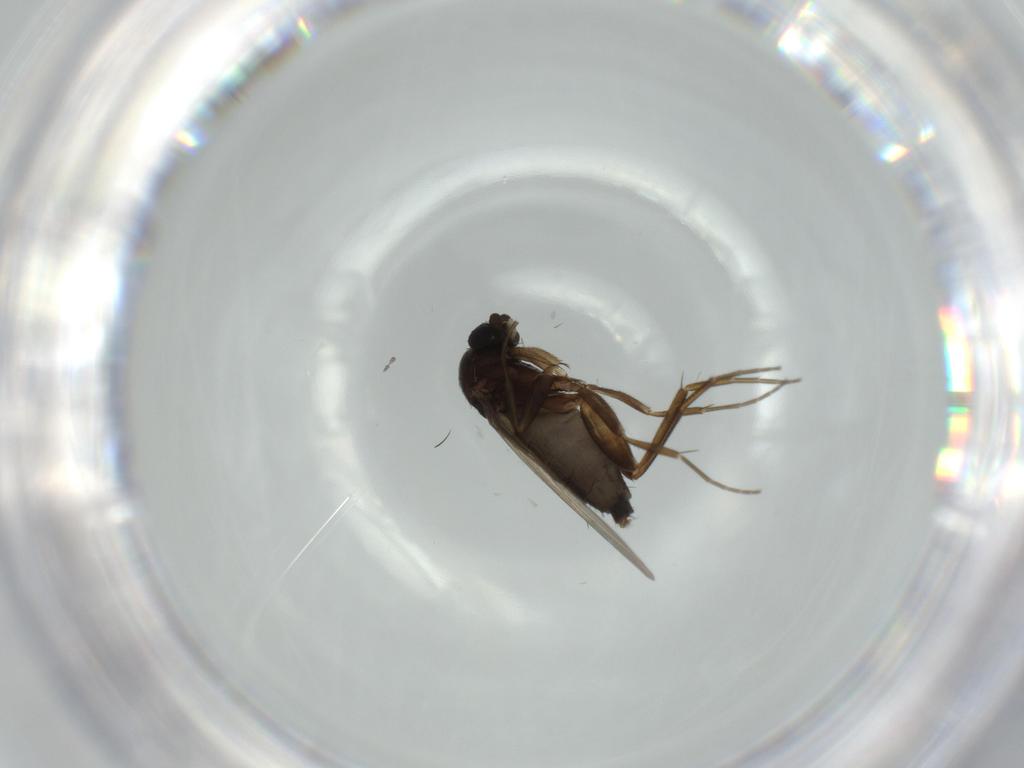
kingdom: Animalia
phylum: Arthropoda
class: Insecta
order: Diptera
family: Phoridae
